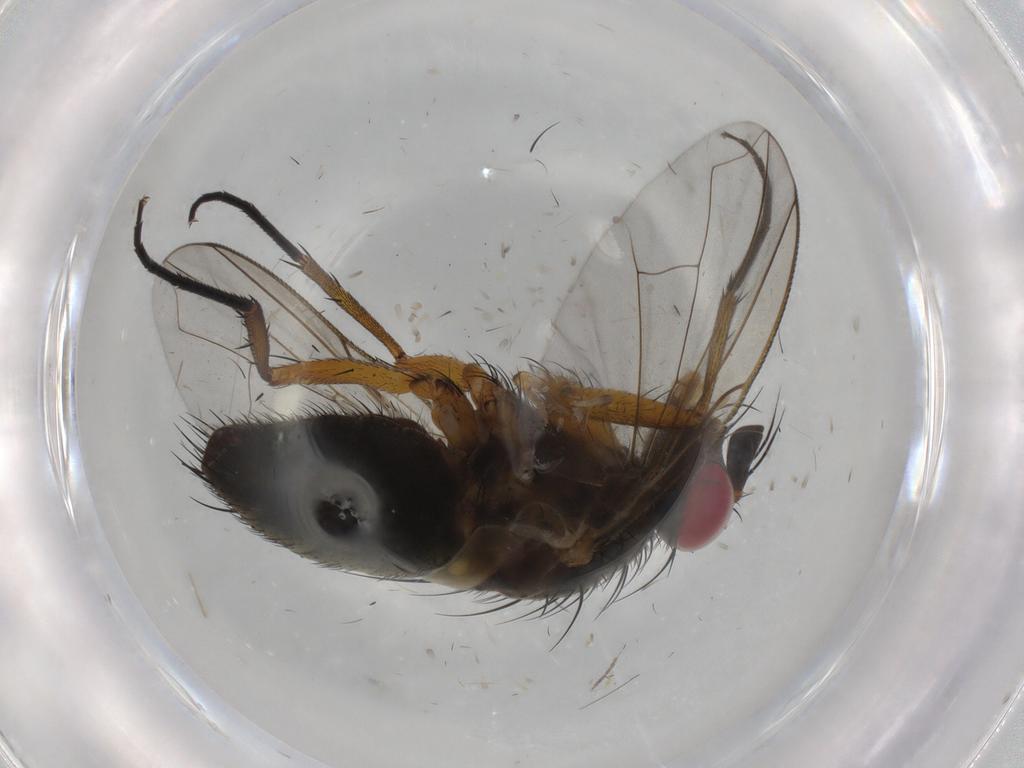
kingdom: Animalia
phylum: Arthropoda
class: Insecta
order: Diptera
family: Tachinidae
